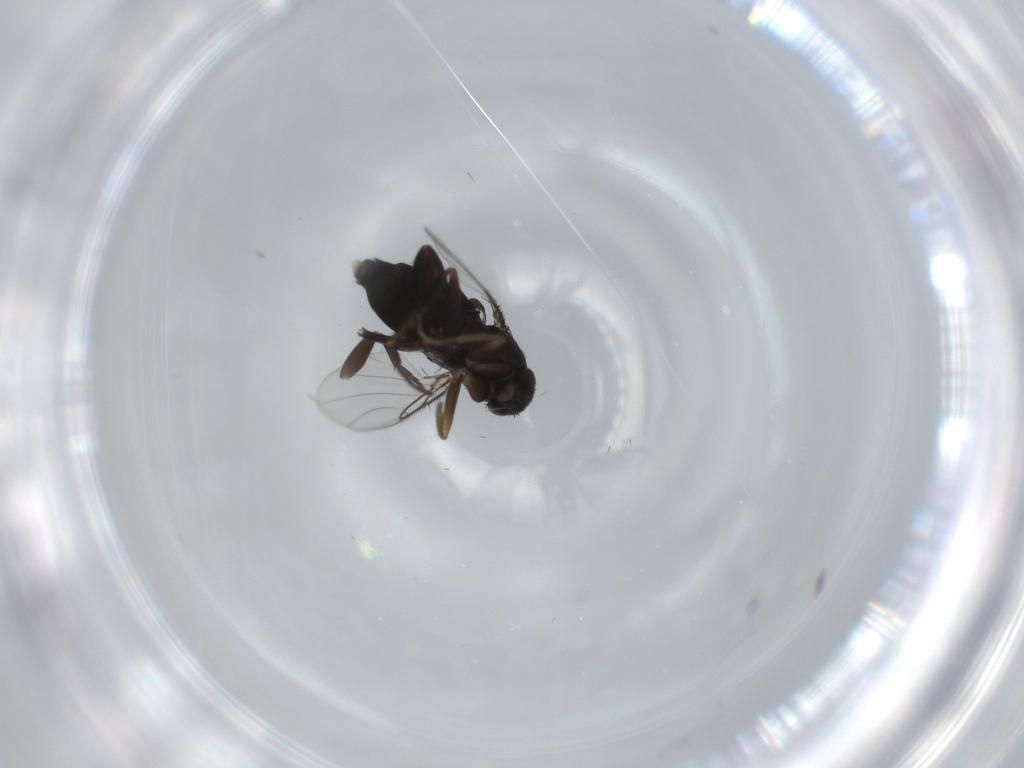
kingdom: Animalia
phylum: Arthropoda
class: Insecta
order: Diptera
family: Phoridae
